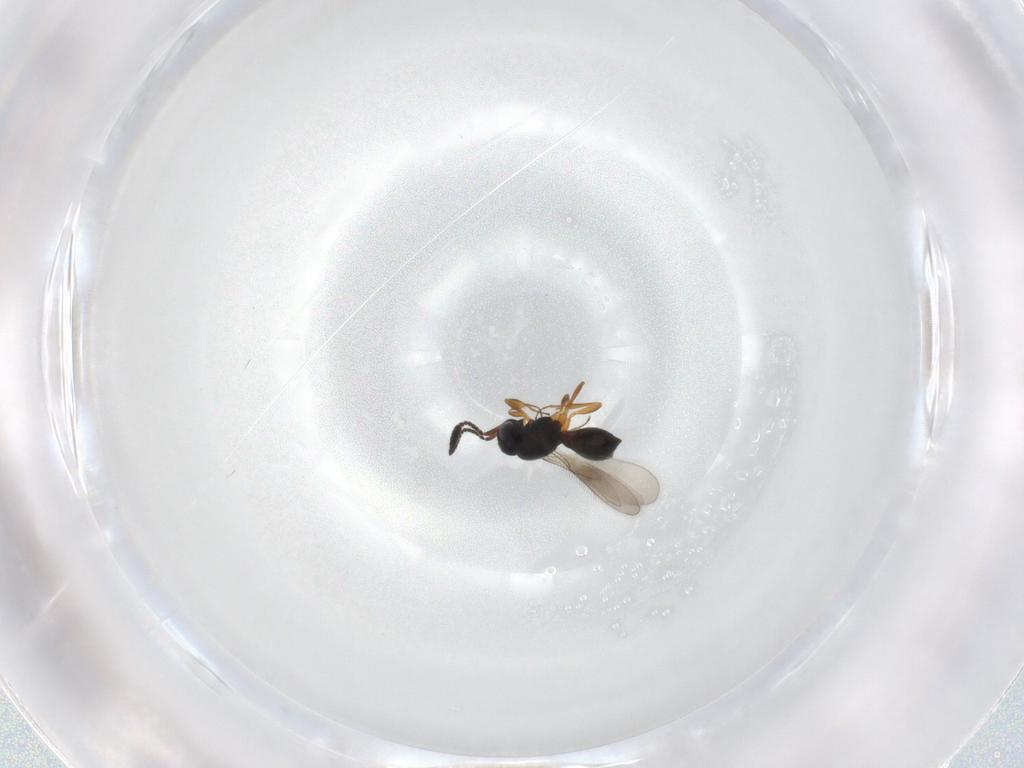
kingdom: Animalia
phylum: Arthropoda
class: Insecta
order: Hymenoptera
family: Scelionidae
